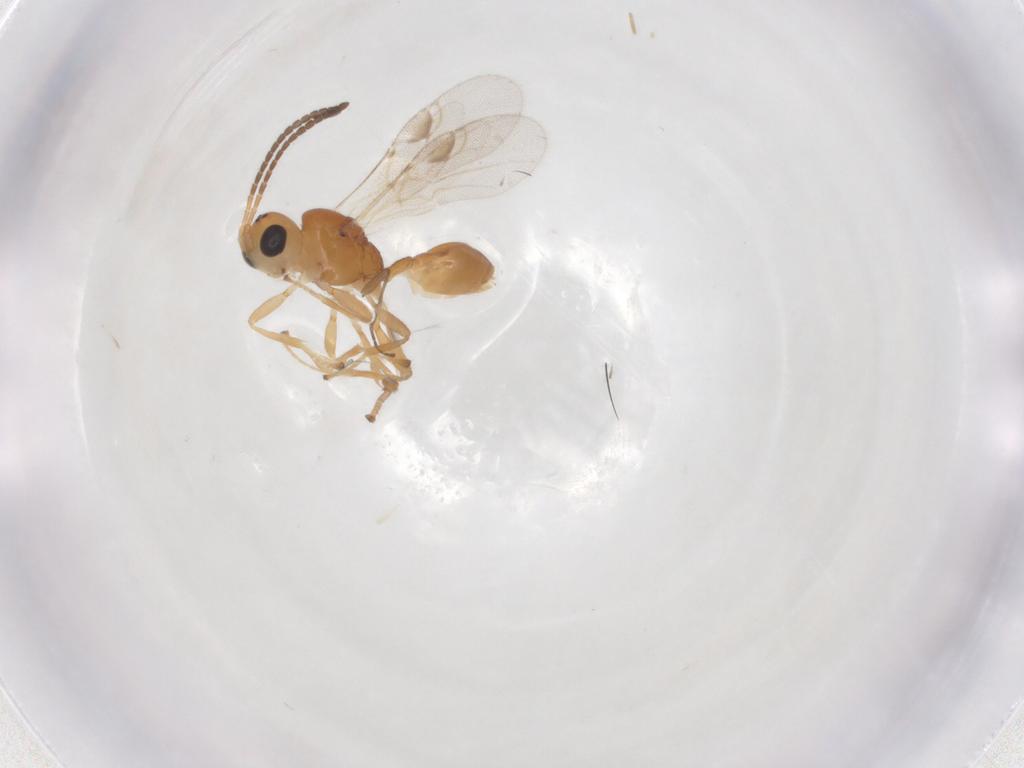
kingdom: Animalia
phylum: Arthropoda
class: Insecta
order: Hymenoptera
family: Braconidae
